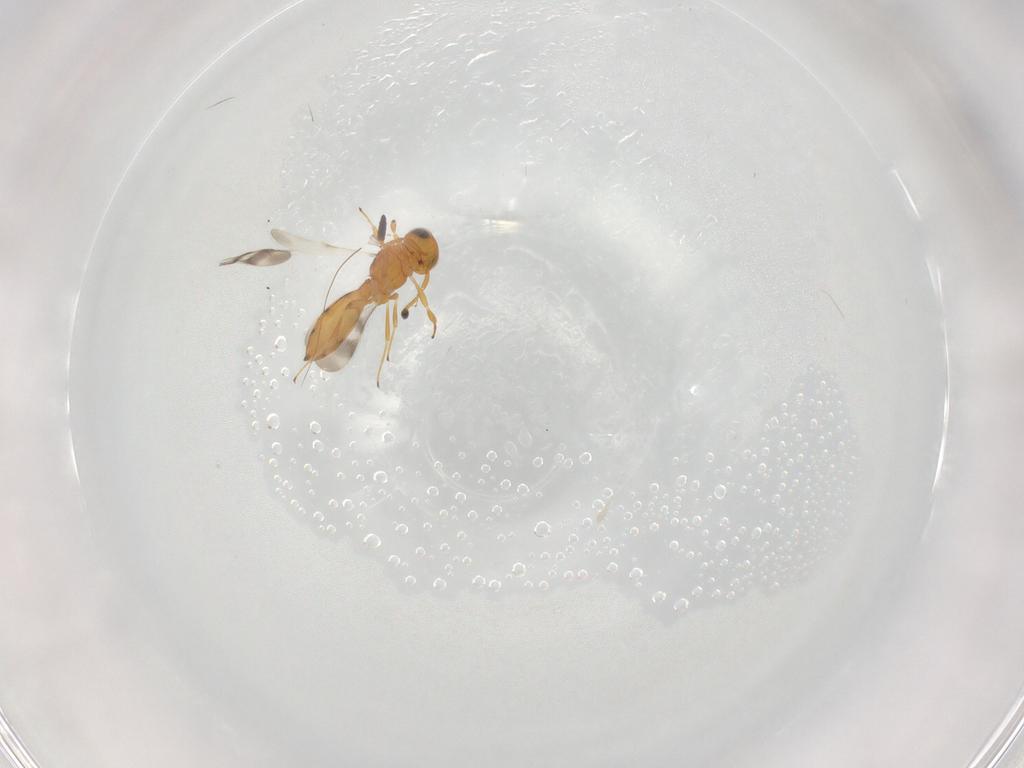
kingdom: Animalia
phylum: Arthropoda
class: Insecta
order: Hymenoptera
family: Scelionidae
